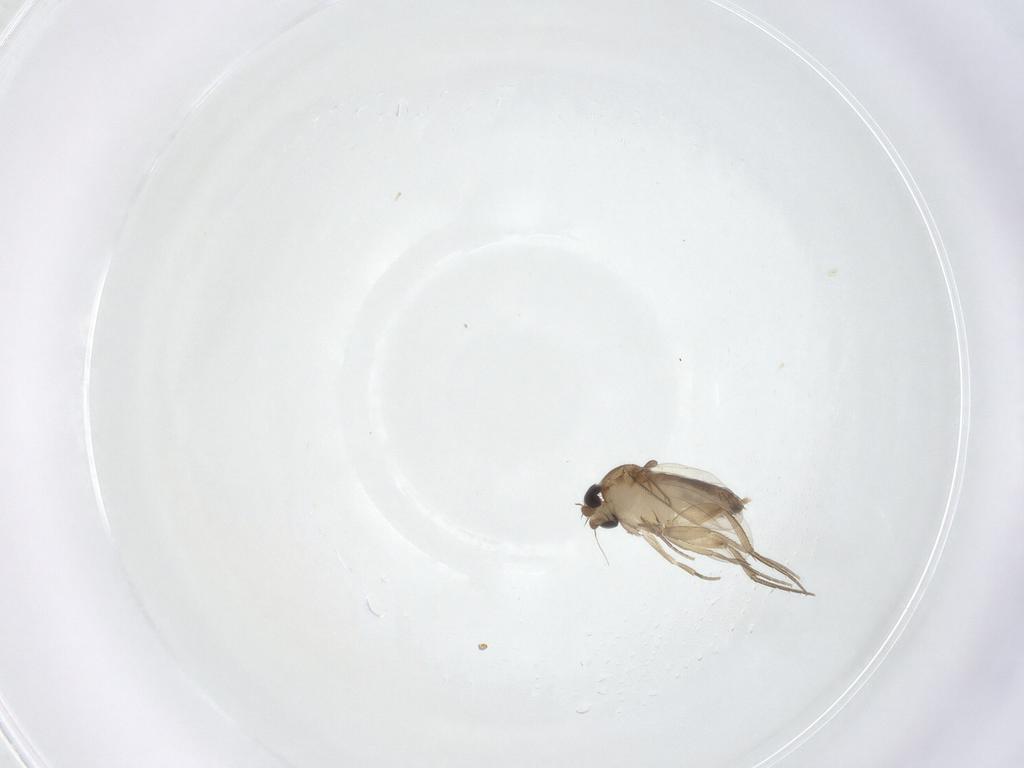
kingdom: Animalia
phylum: Arthropoda
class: Insecta
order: Diptera
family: Phoridae
